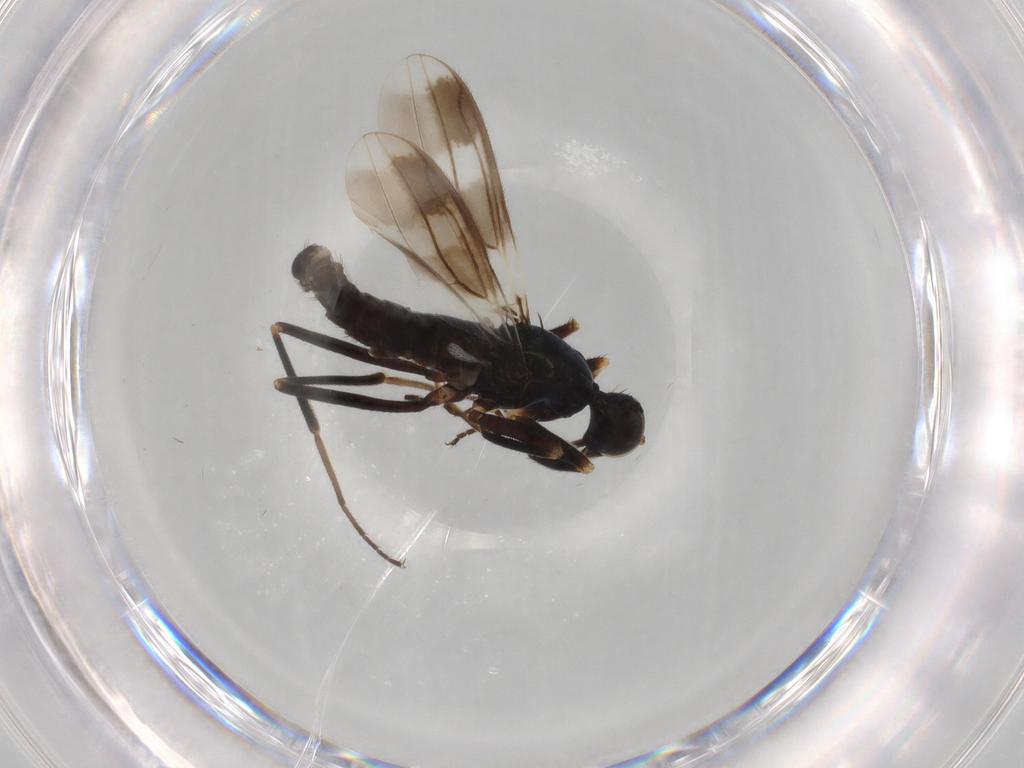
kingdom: Animalia
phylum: Arthropoda
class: Insecta
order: Diptera
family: Hybotidae
